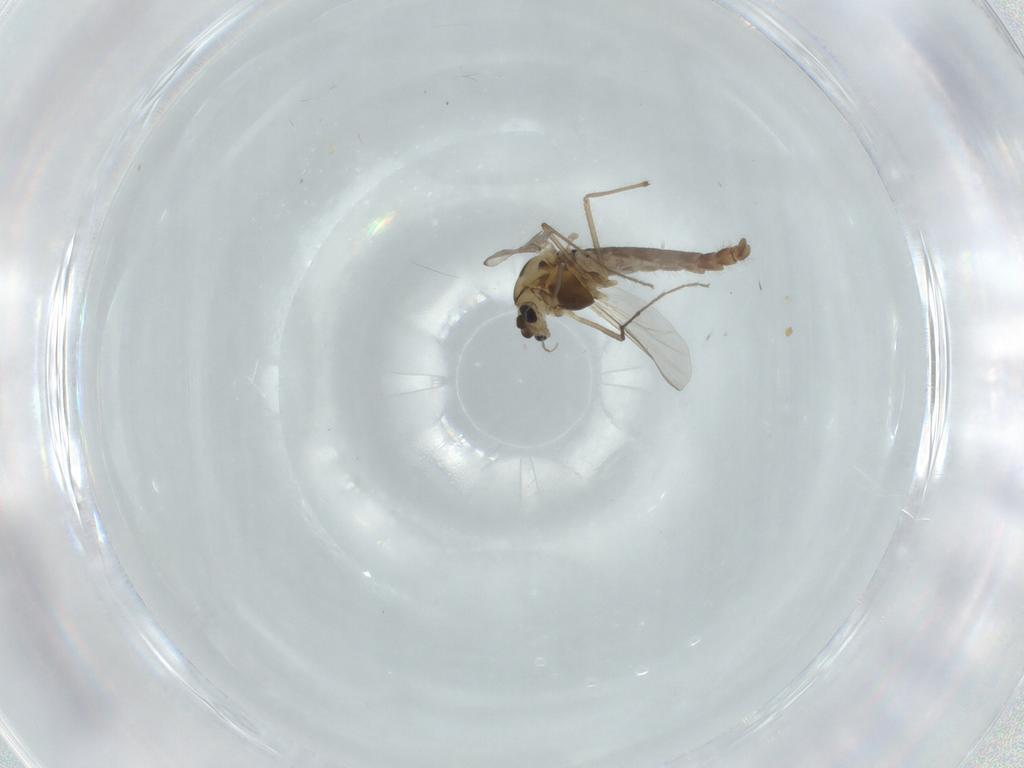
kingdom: Animalia
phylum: Arthropoda
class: Insecta
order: Diptera
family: Chironomidae
